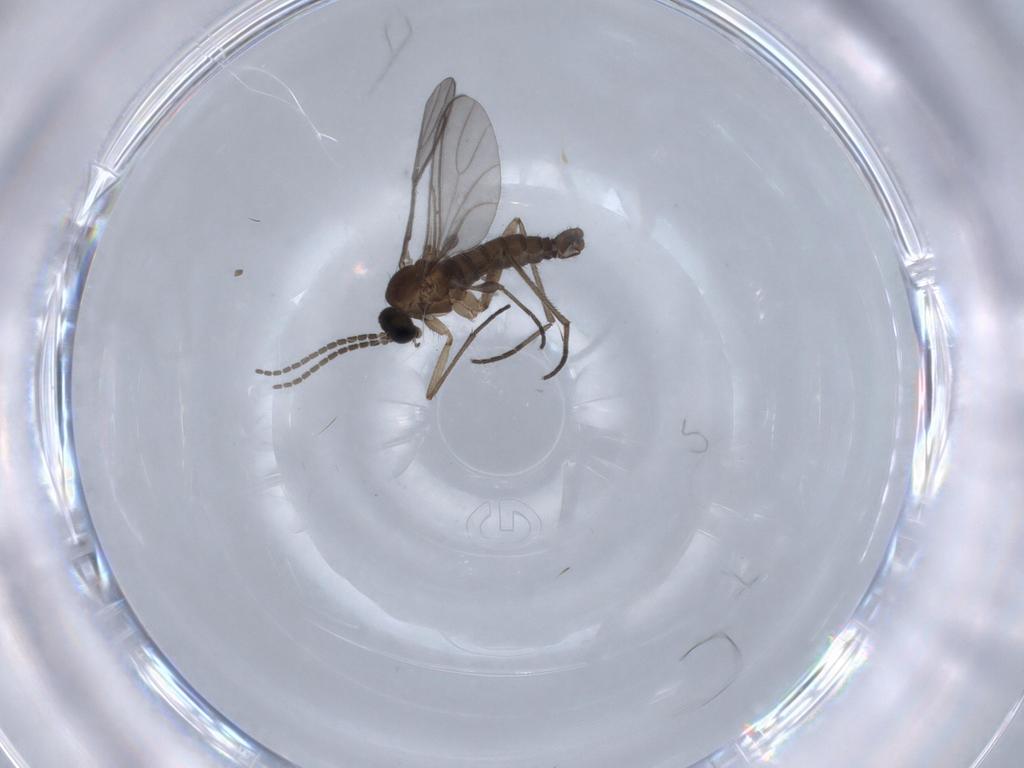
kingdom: Animalia
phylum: Arthropoda
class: Insecta
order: Diptera
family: Sciaridae
